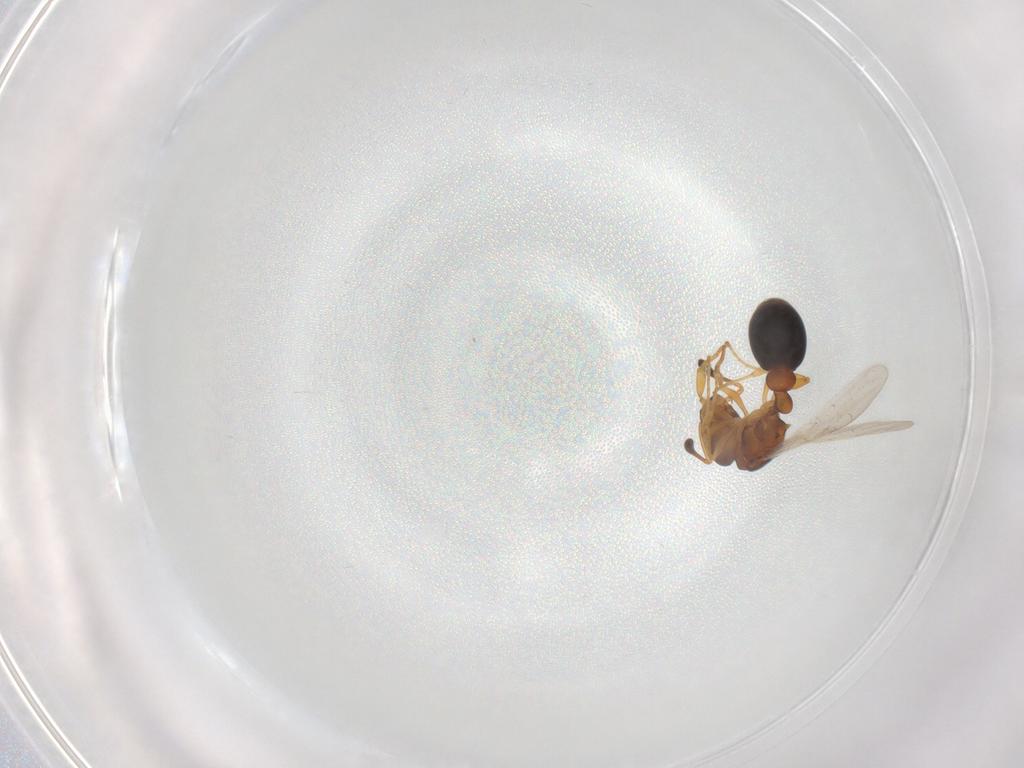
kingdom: Animalia
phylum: Arthropoda
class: Insecta
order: Hymenoptera
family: Formicidae
